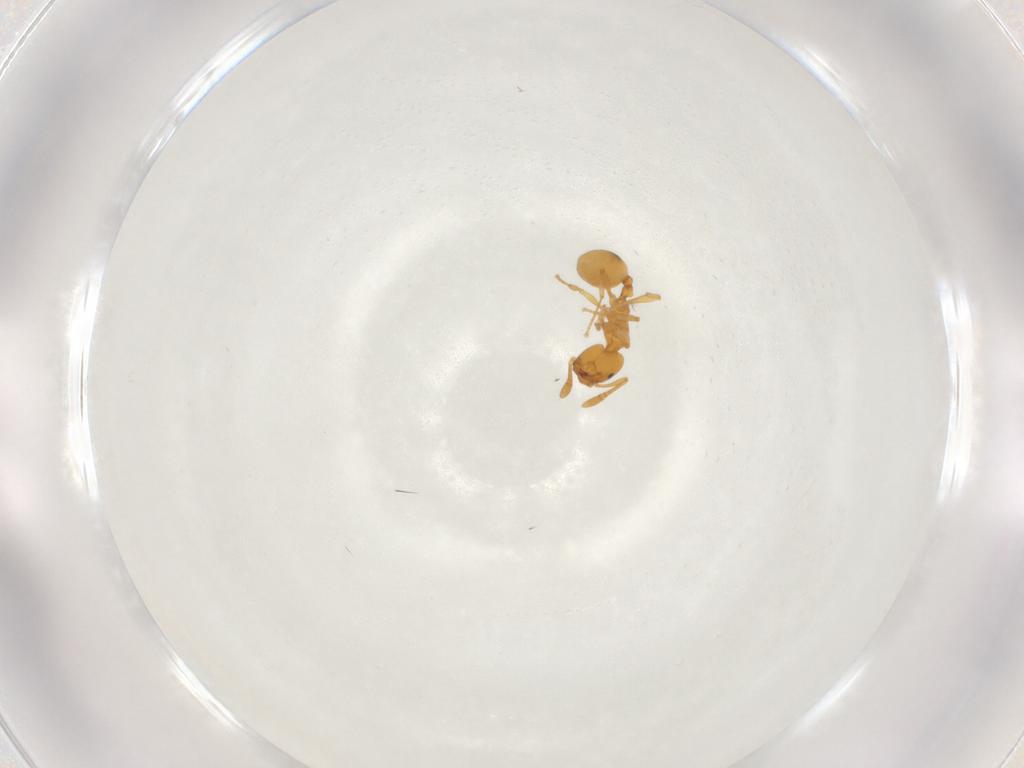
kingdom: Animalia
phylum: Arthropoda
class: Insecta
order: Hymenoptera
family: Formicidae
